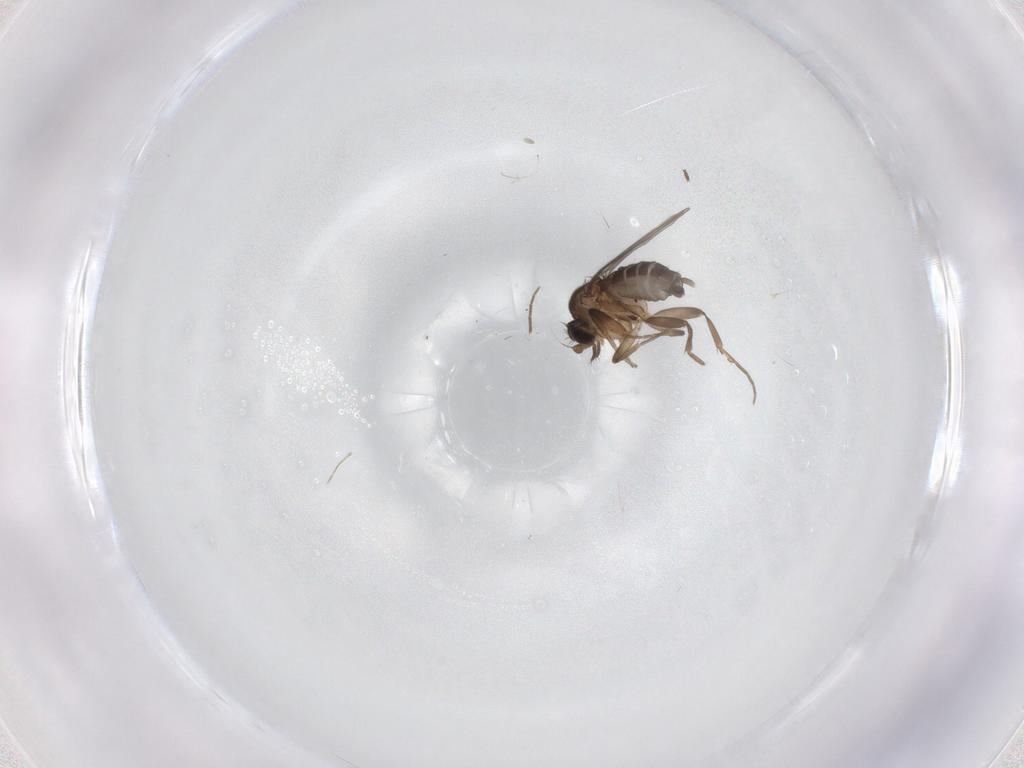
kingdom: Animalia
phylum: Arthropoda
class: Insecta
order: Diptera
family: Phoridae
